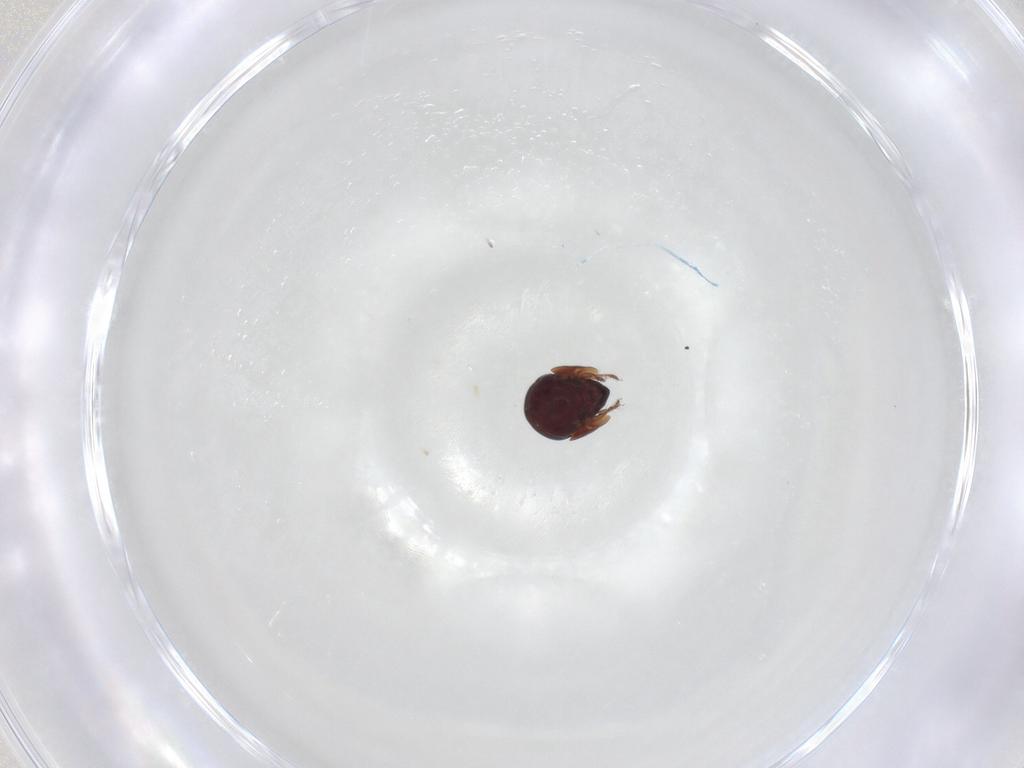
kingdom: Animalia
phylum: Arthropoda
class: Arachnida
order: Sarcoptiformes
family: Galumnidae
